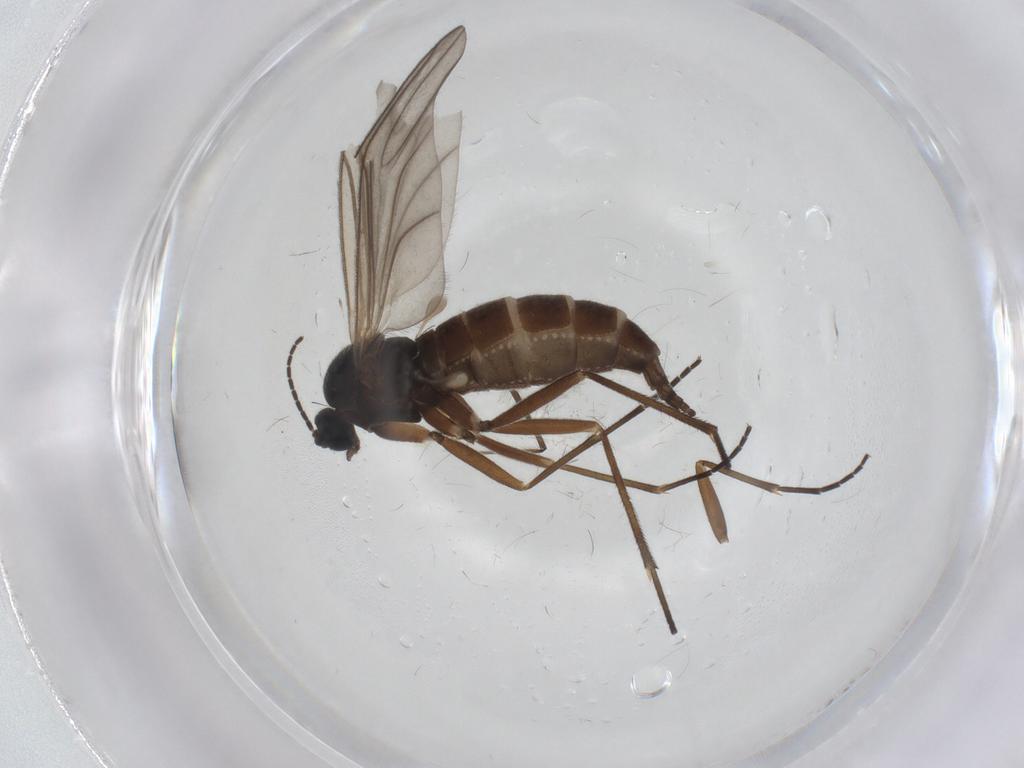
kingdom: Animalia
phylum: Arthropoda
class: Insecta
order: Diptera
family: Sciaridae
